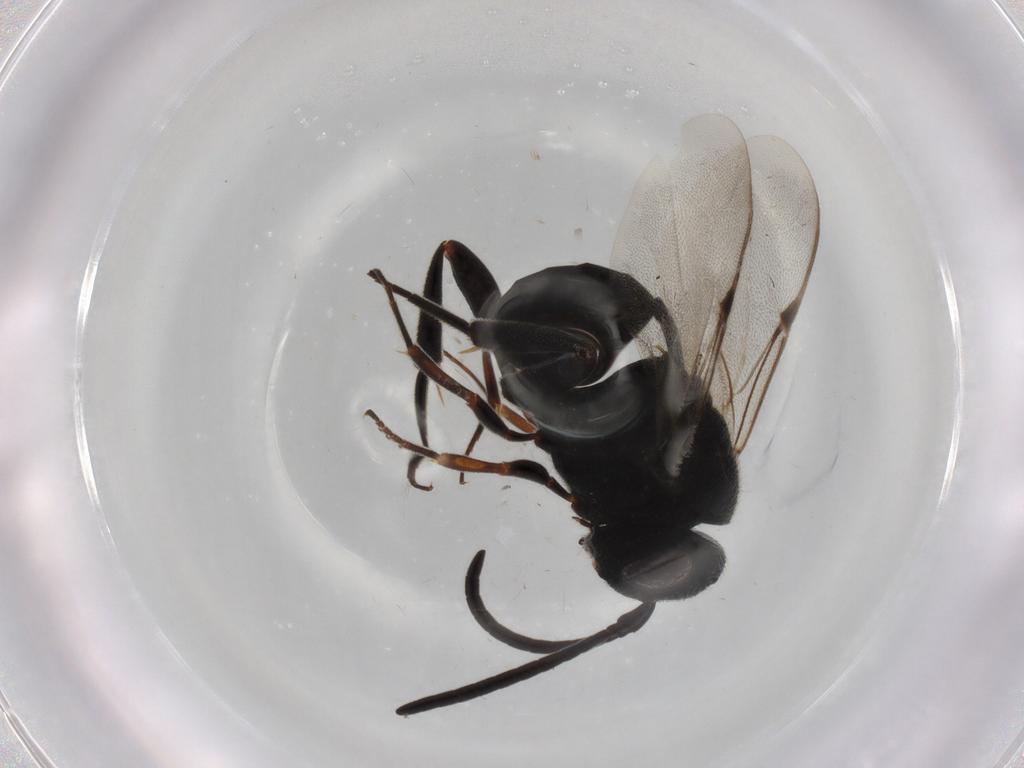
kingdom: Animalia
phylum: Arthropoda
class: Insecta
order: Hymenoptera
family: Evaniidae
